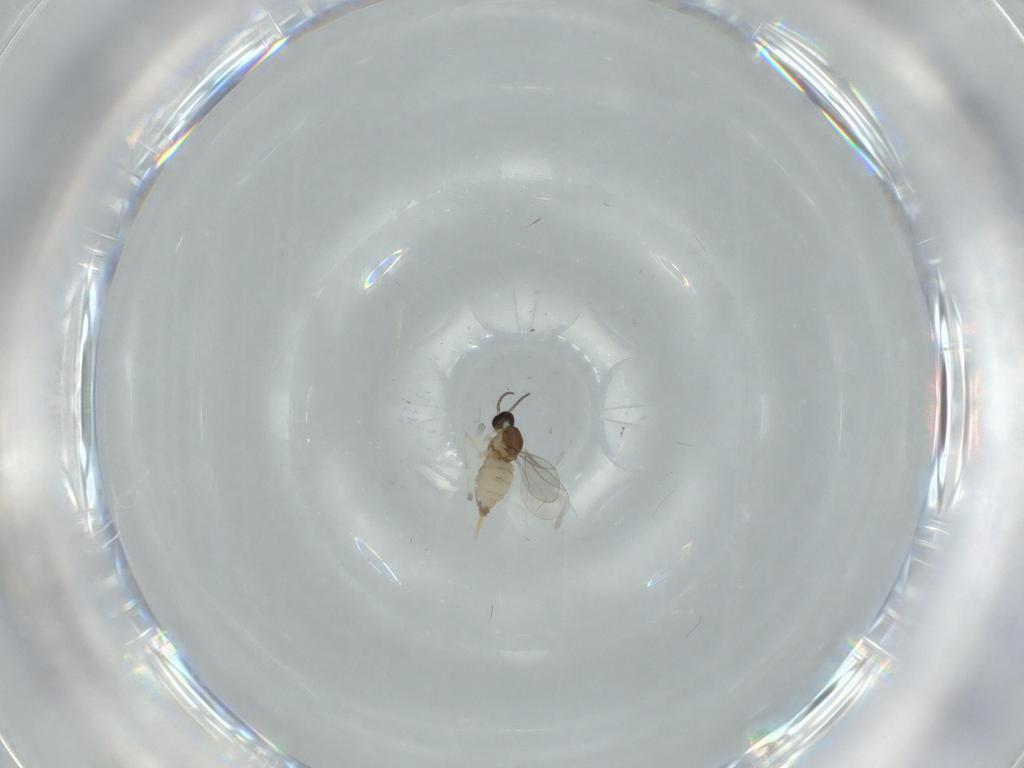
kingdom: Animalia
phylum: Arthropoda
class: Insecta
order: Diptera
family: Cecidomyiidae
